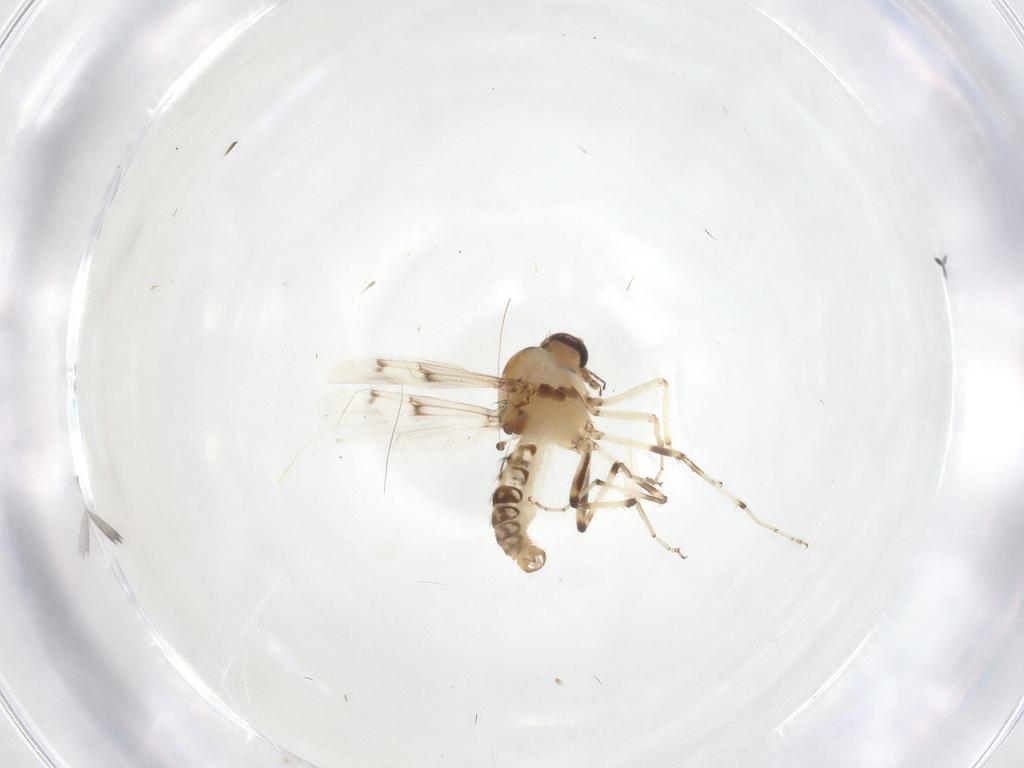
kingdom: Animalia
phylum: Arthropoda
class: Insecta
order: Diptera
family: Ceratopogonidae
